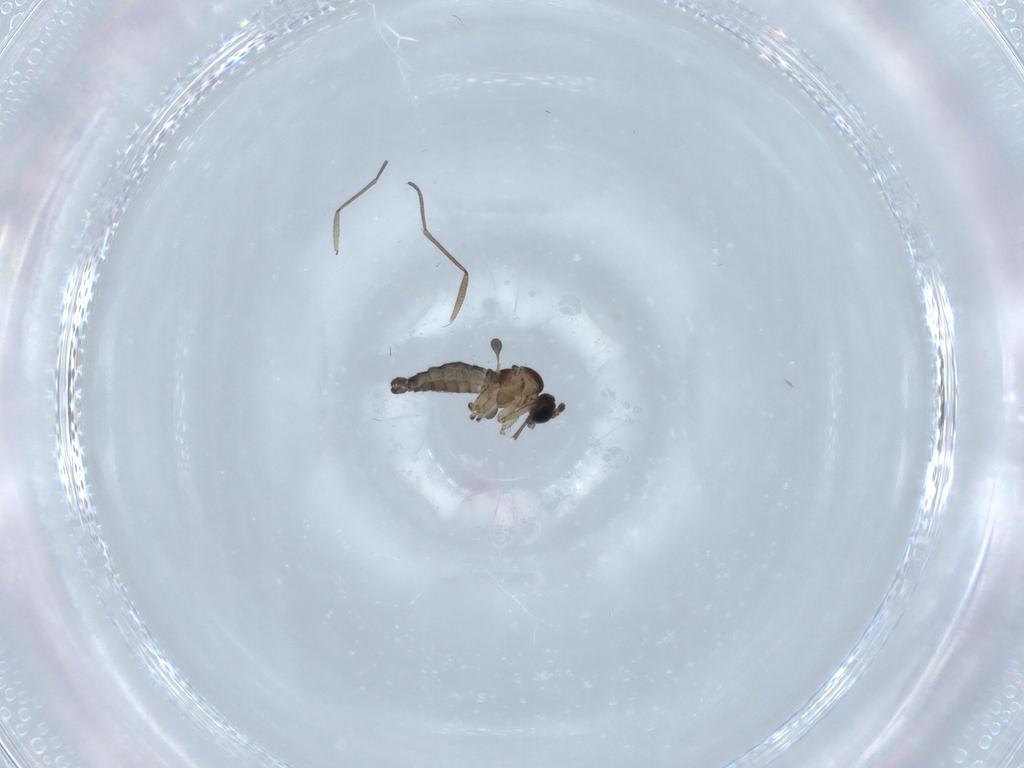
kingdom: Animalia
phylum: Arthropoda
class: Insecta
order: Diptera
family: Sciaridae
